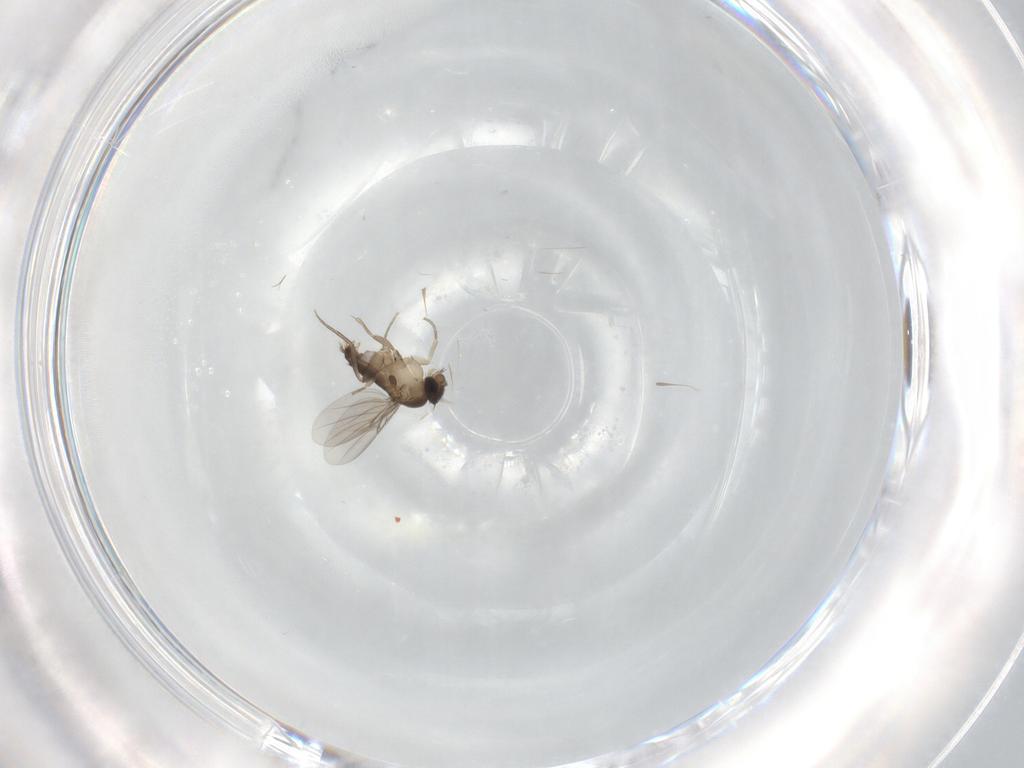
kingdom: Animalia
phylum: Arthropoda
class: Insecta
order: Diptera
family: Phoridae
